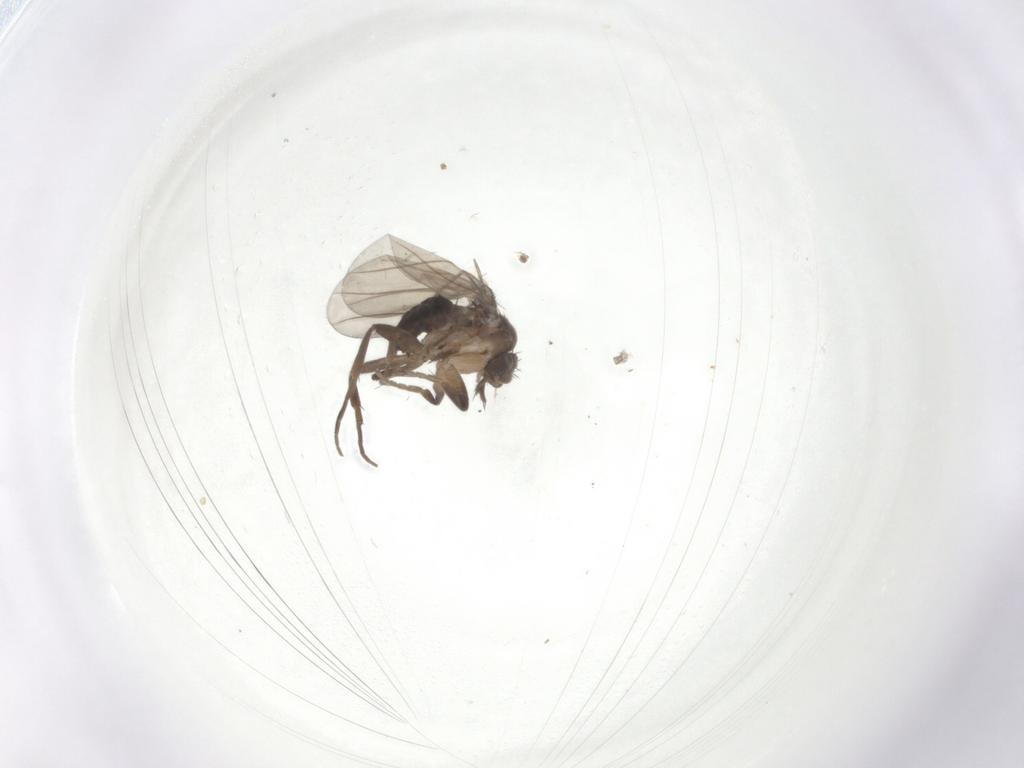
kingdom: Animalia
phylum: Arthropoda
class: Insecta
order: Diptera
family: Phoridae
